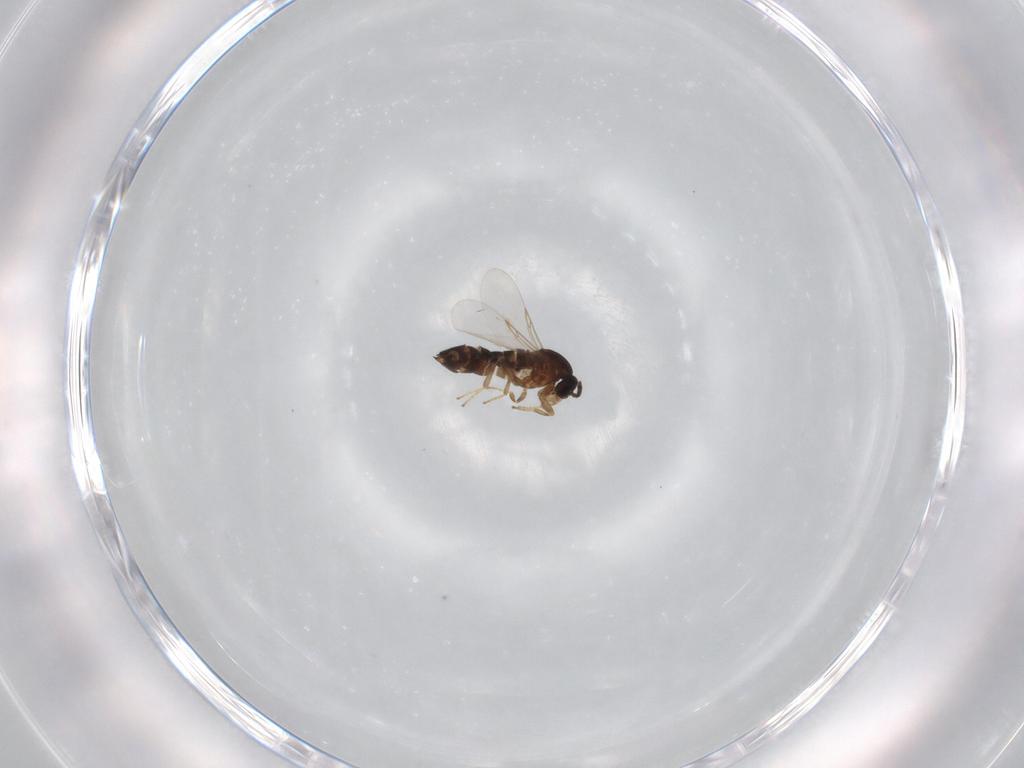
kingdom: Animalia
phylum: Arthropoda
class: Insecta
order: Diptera
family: Scatopsidae
